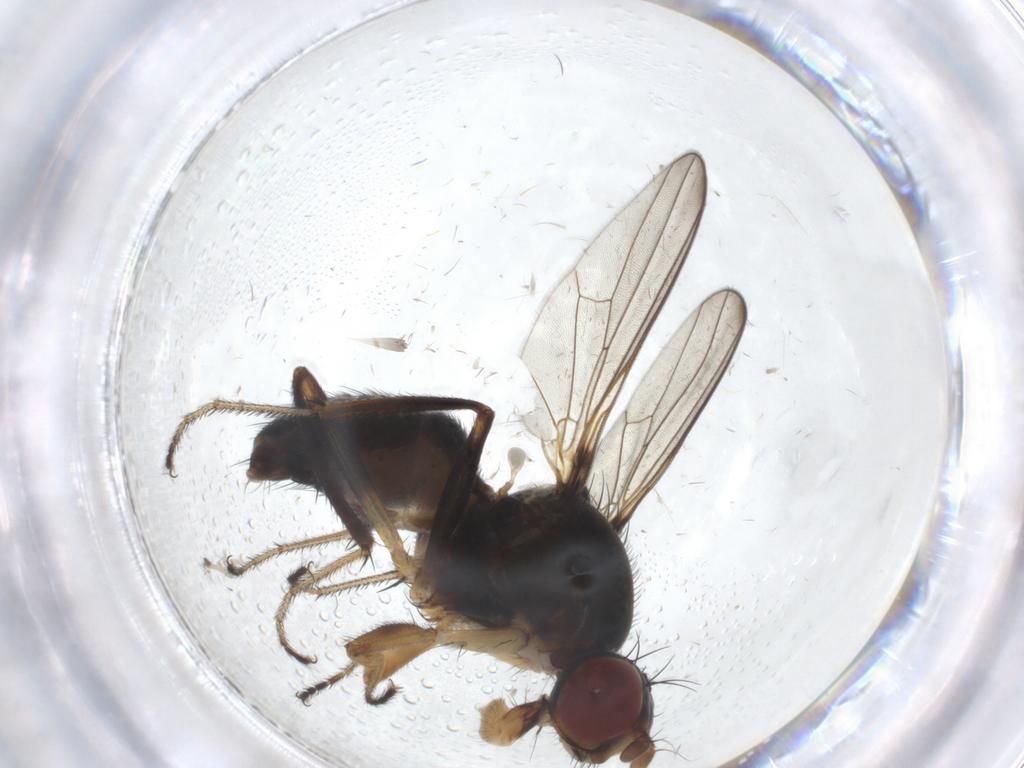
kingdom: Animalia
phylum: Arthropoda
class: Insecta
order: Diptera
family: Sepsidae
